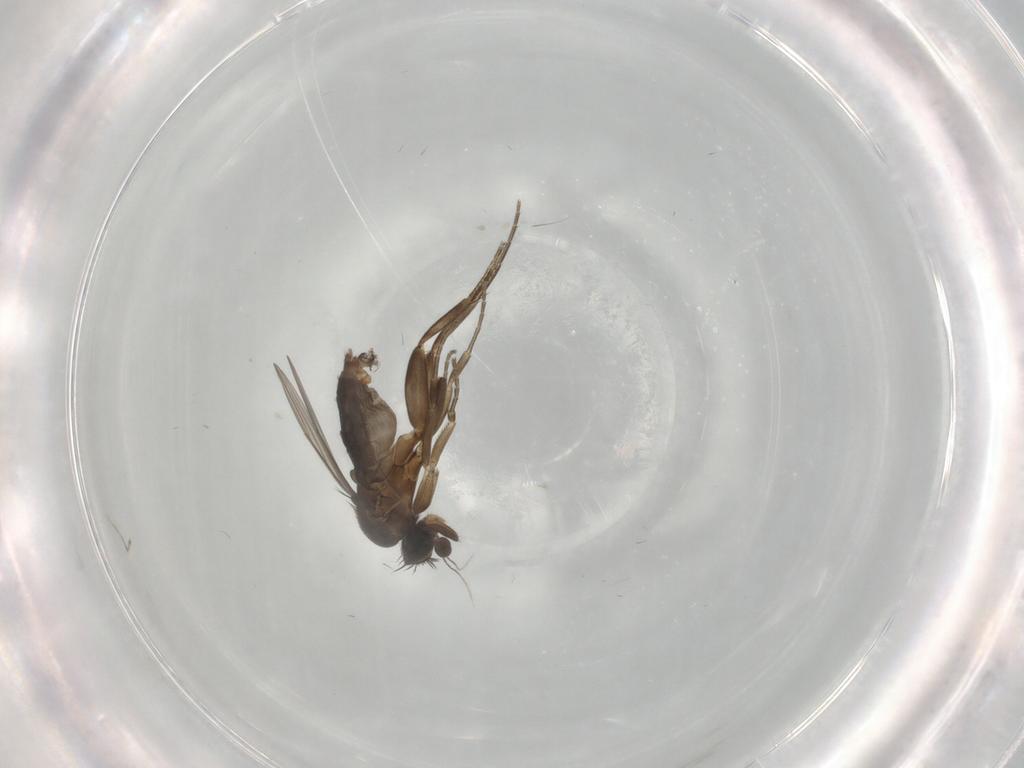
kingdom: Animalia
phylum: Arthropoda
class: Insecta
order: Diptera
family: Phoridae
